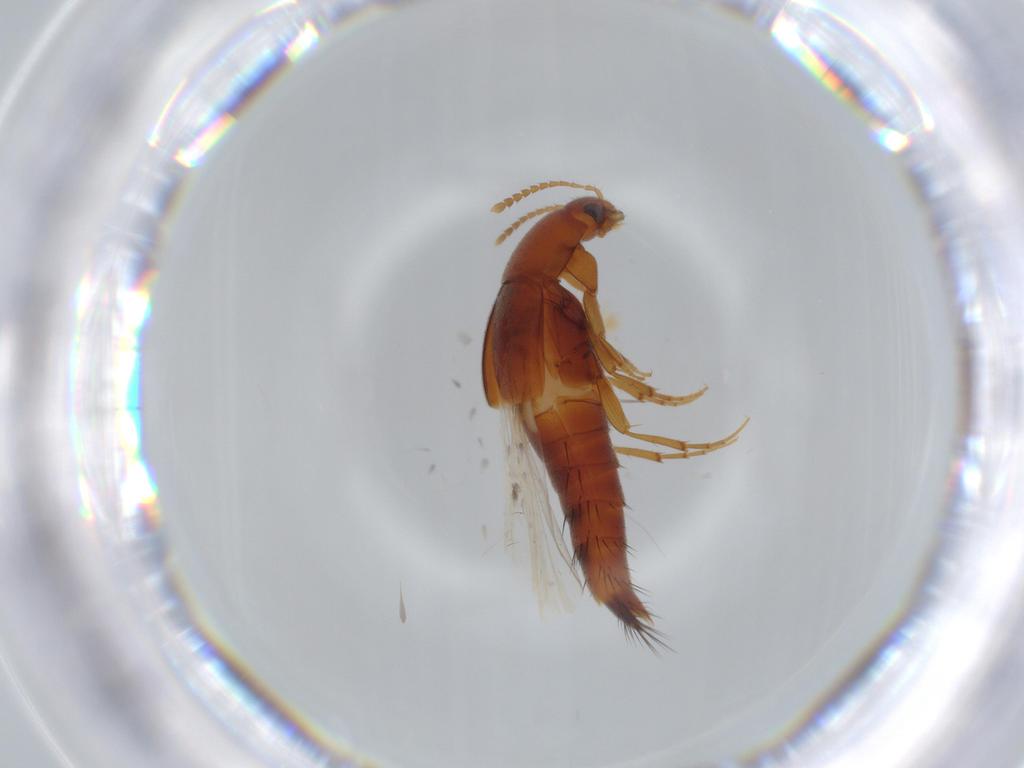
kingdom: Animalia
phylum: Arthropoda
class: Insecta
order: Coleoptera
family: Staphylinidae
